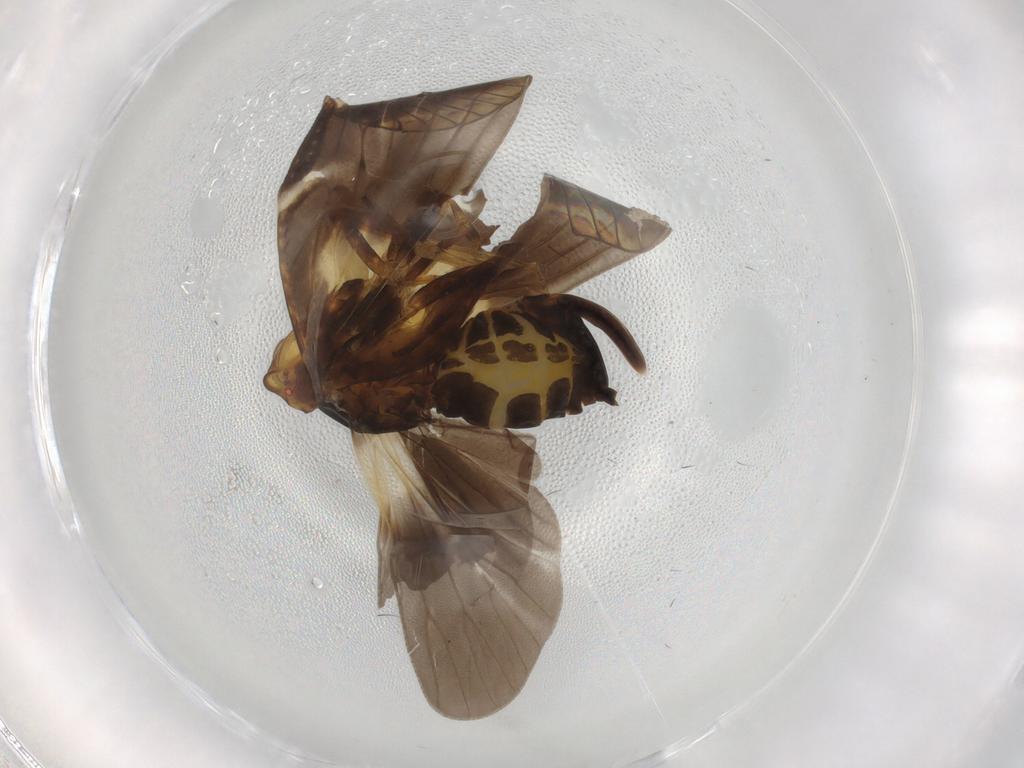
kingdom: Animalia
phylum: Arthropoda
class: Insecta
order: Hemiptera
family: Cixiidae
